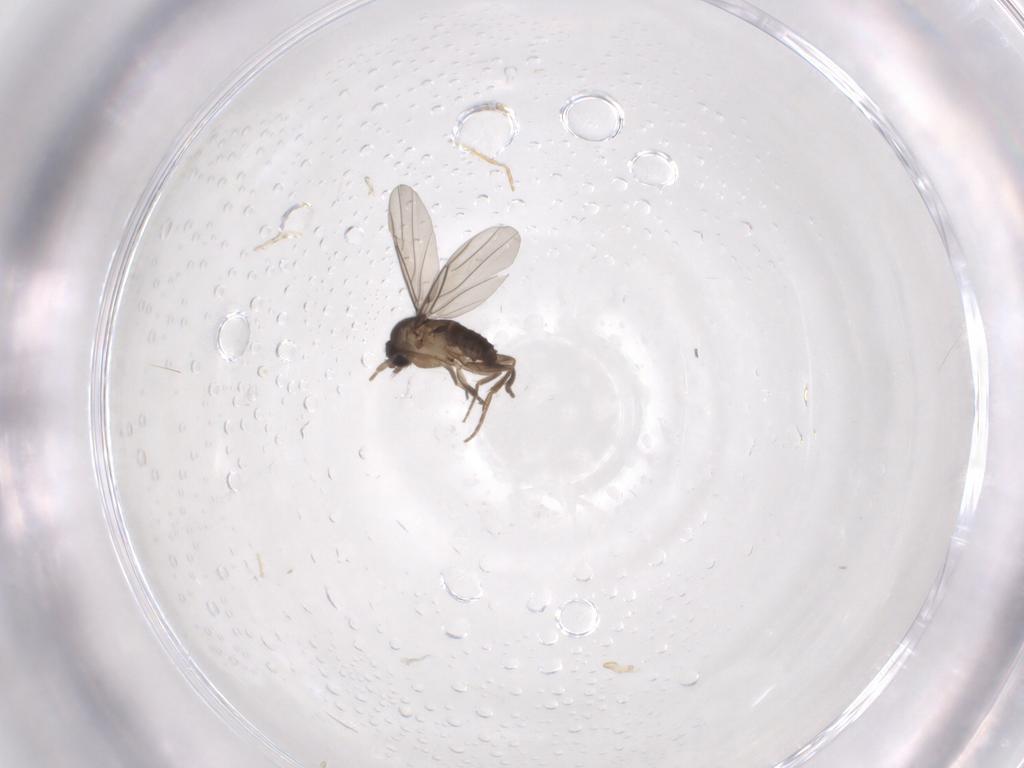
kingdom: Animalia
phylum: Arthropoda
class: Insecta
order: Diptera
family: Phoridae
